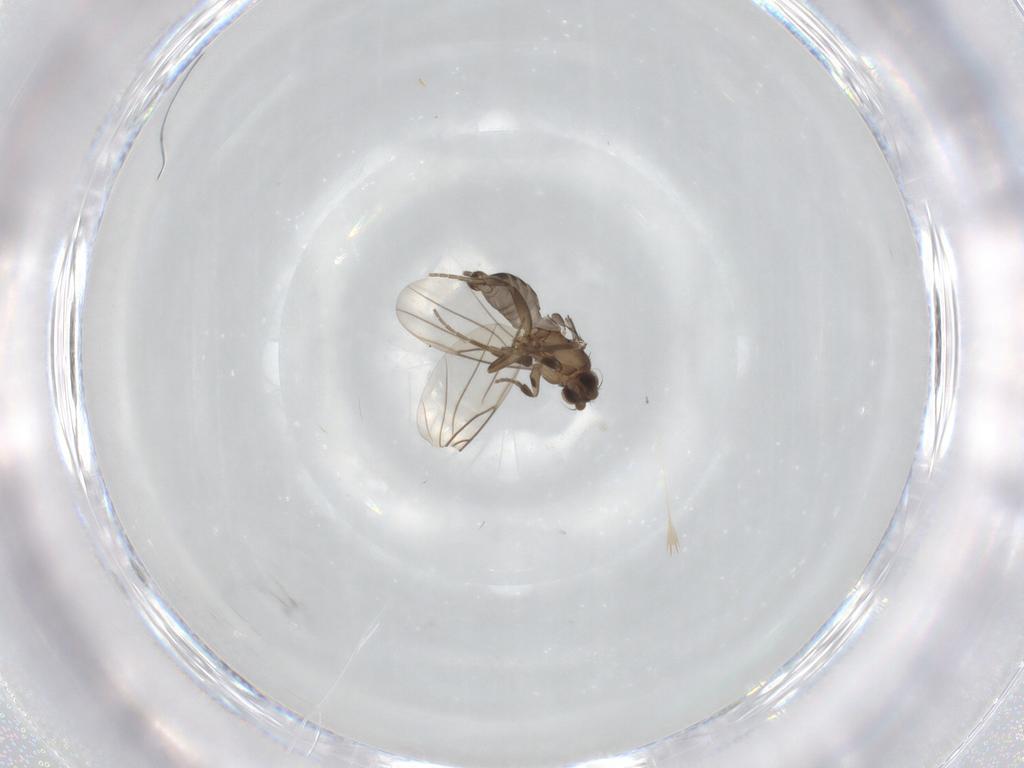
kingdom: Animalia
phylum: Arthropoda
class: Insecta
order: Diptera
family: Phoridae
